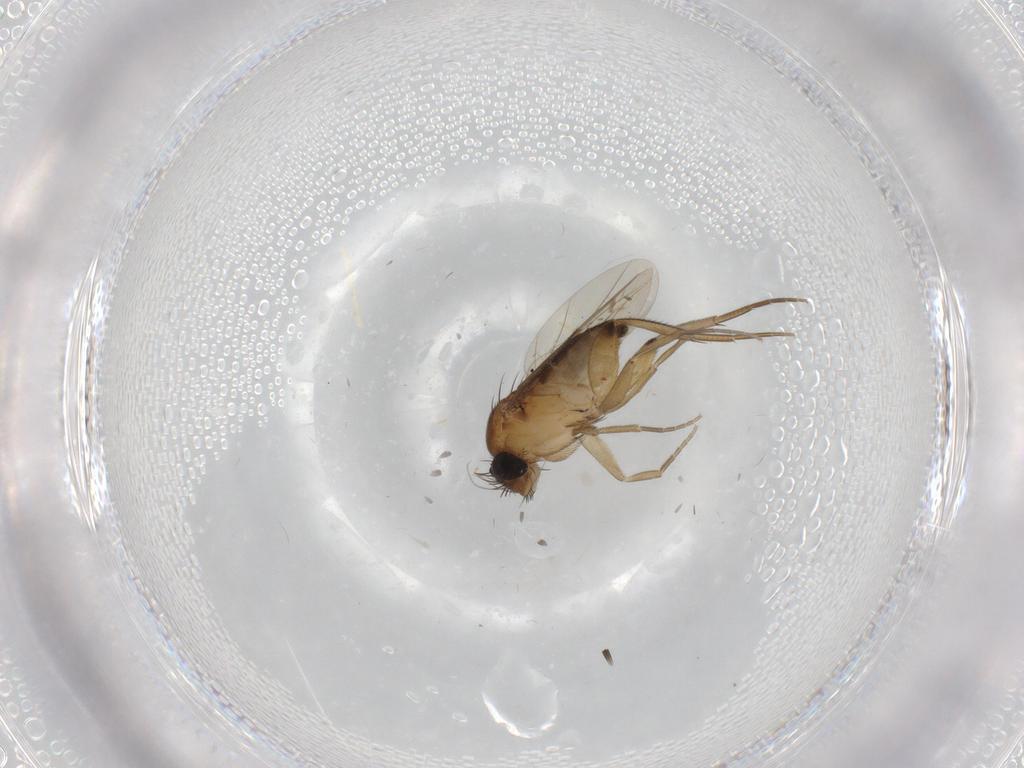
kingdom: Animalia
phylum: Arthropoda
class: Insecta
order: Diptera
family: Phoridae
